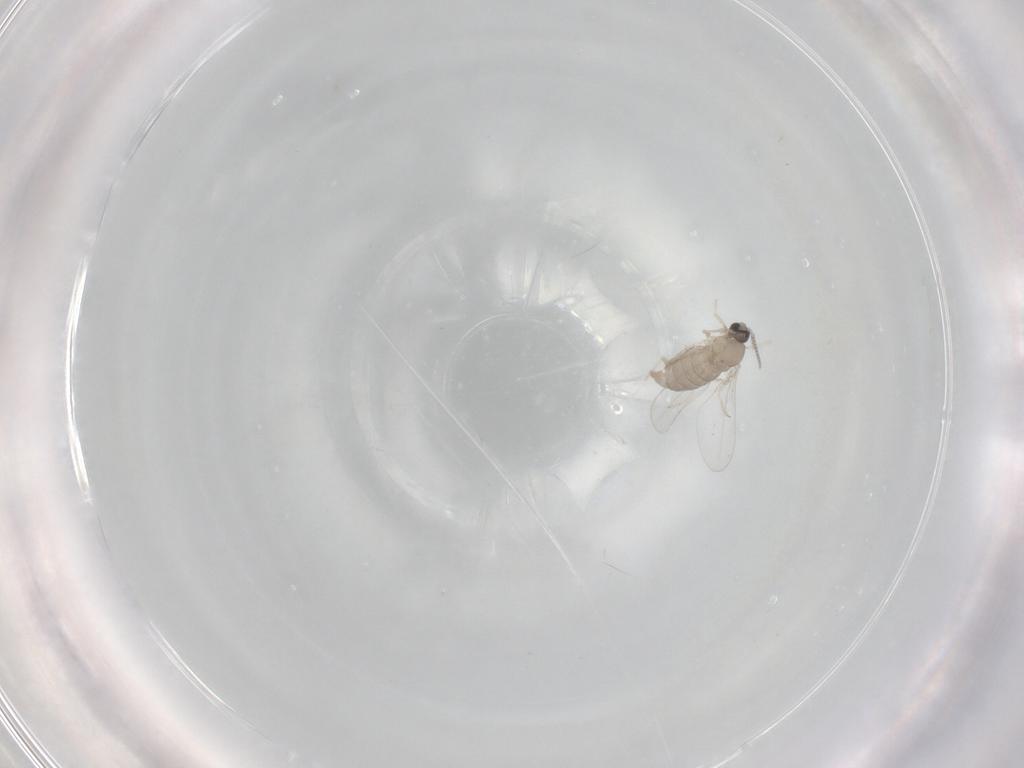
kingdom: Animalia
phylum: Arthropoda
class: Insecta
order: Diptera
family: Cecidomyiidae
